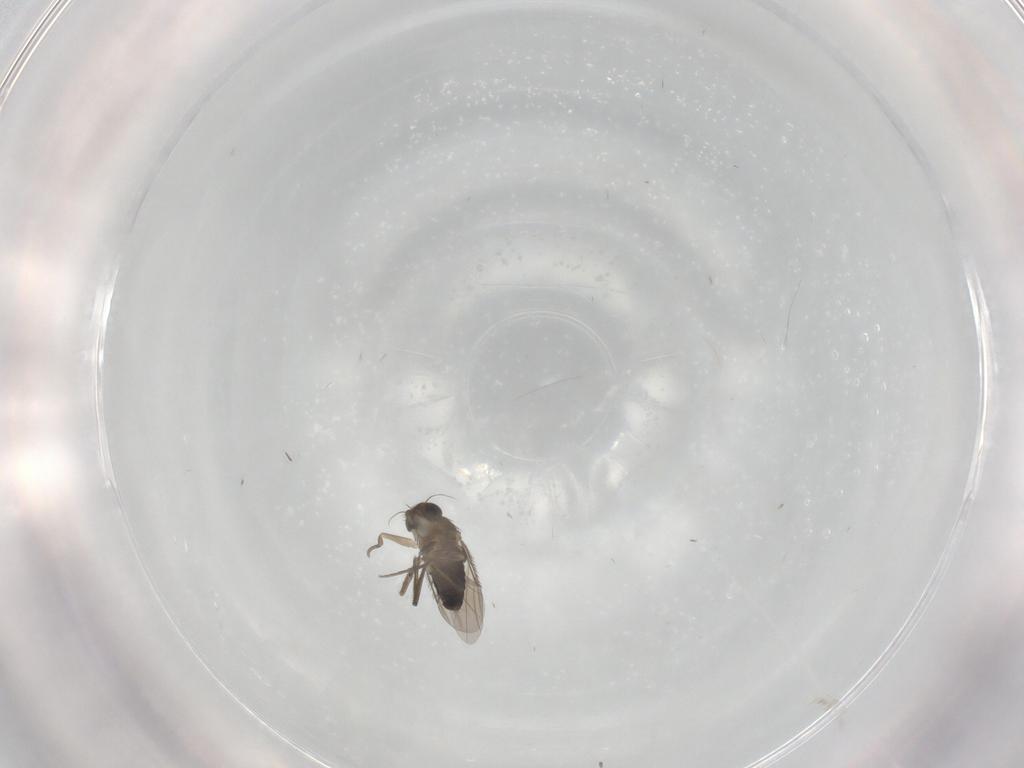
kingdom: Animalia
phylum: Arthropoda
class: Insecta
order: Diptera
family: Phoridae
